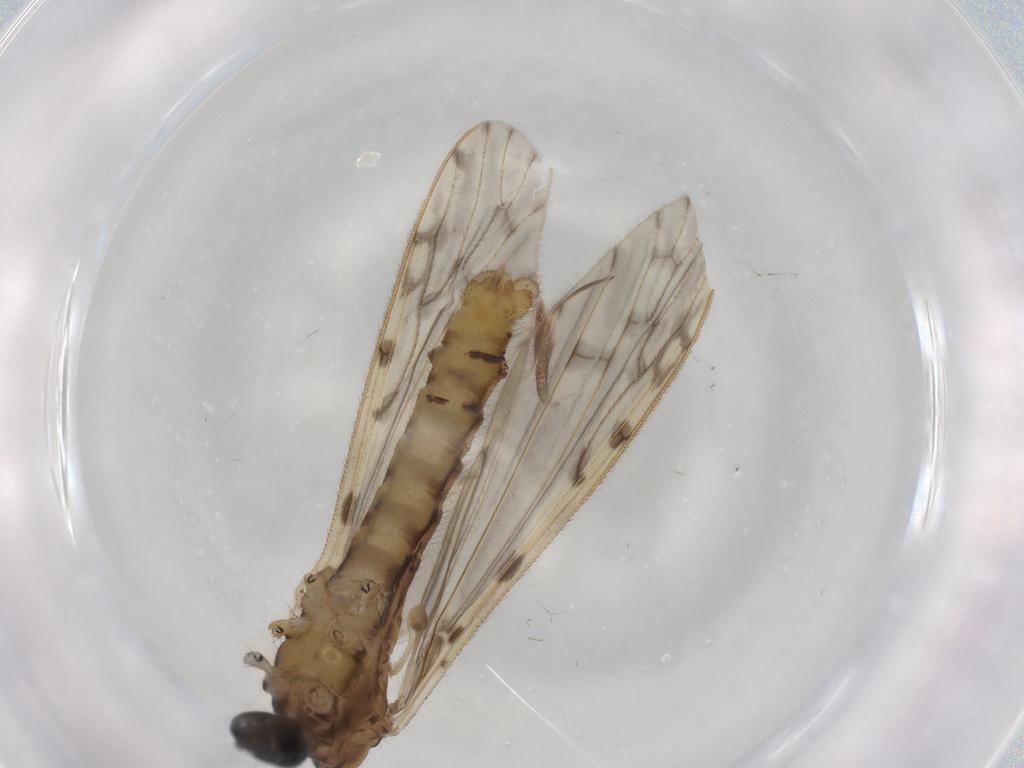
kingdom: Animalia
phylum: Arthropoda
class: Insecta
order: Diptera
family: Limoniidae
